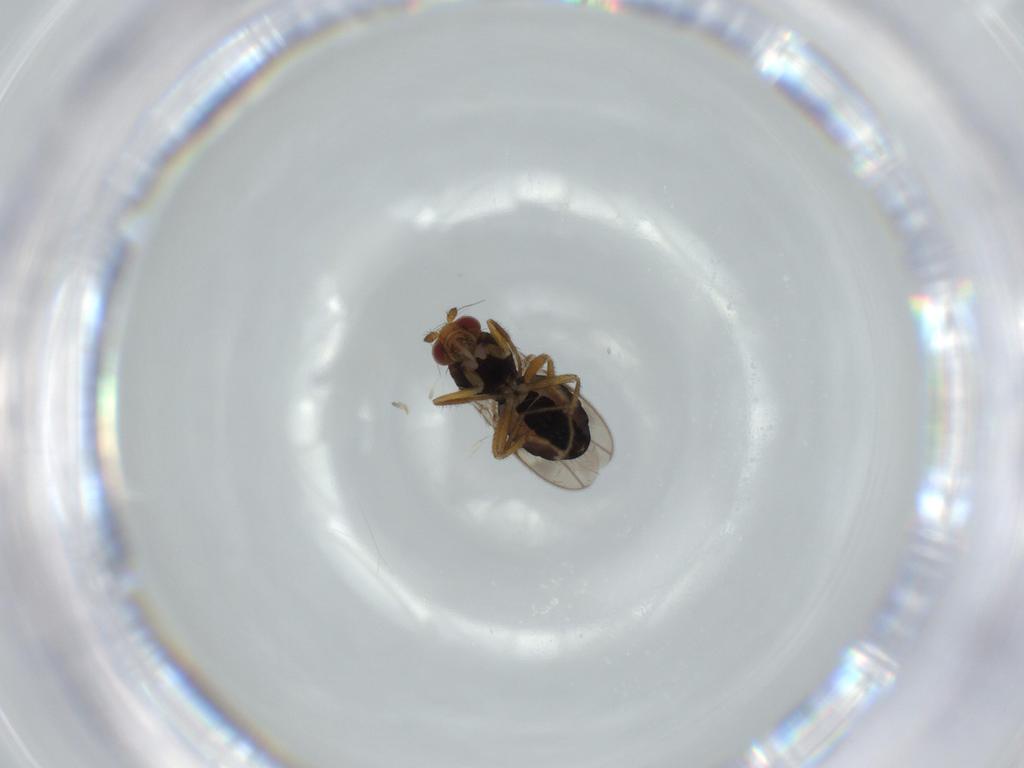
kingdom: Animalia
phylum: Arthropoda
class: Insecta
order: Diptera
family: Sphaeroceridae
